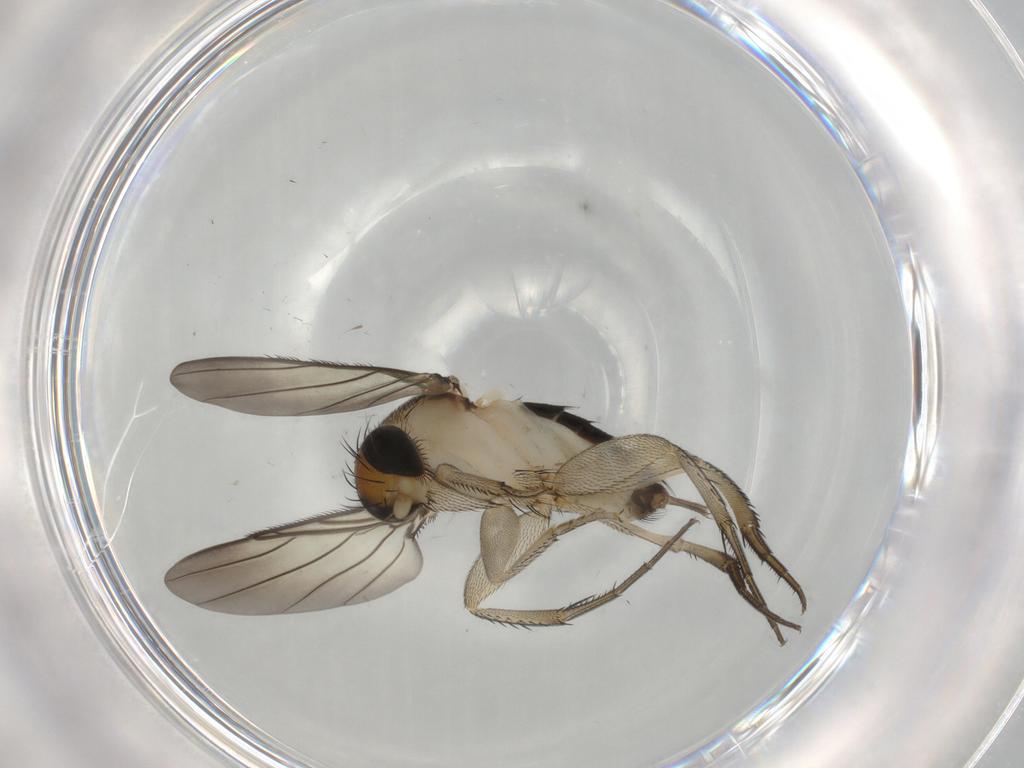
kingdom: Animalia
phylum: Arthropoda
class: Insecta
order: Diptera
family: Phoridae
